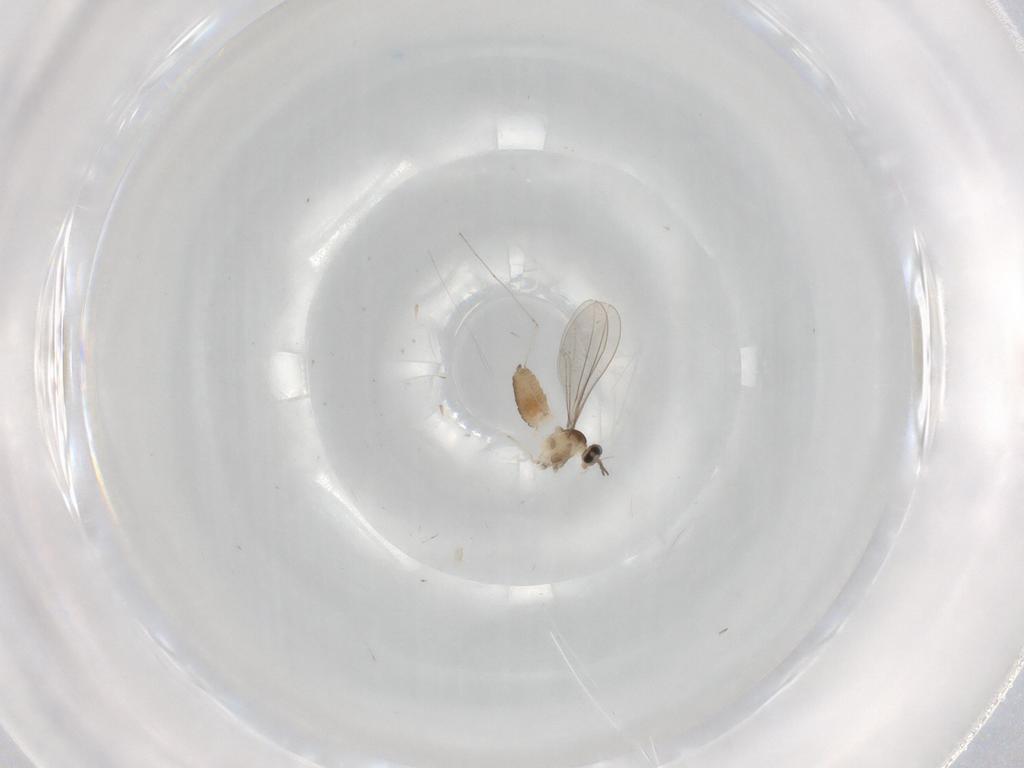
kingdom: Animalia
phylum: Arthropoda
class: Insecta
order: Diptera
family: Cecidomyiidae
